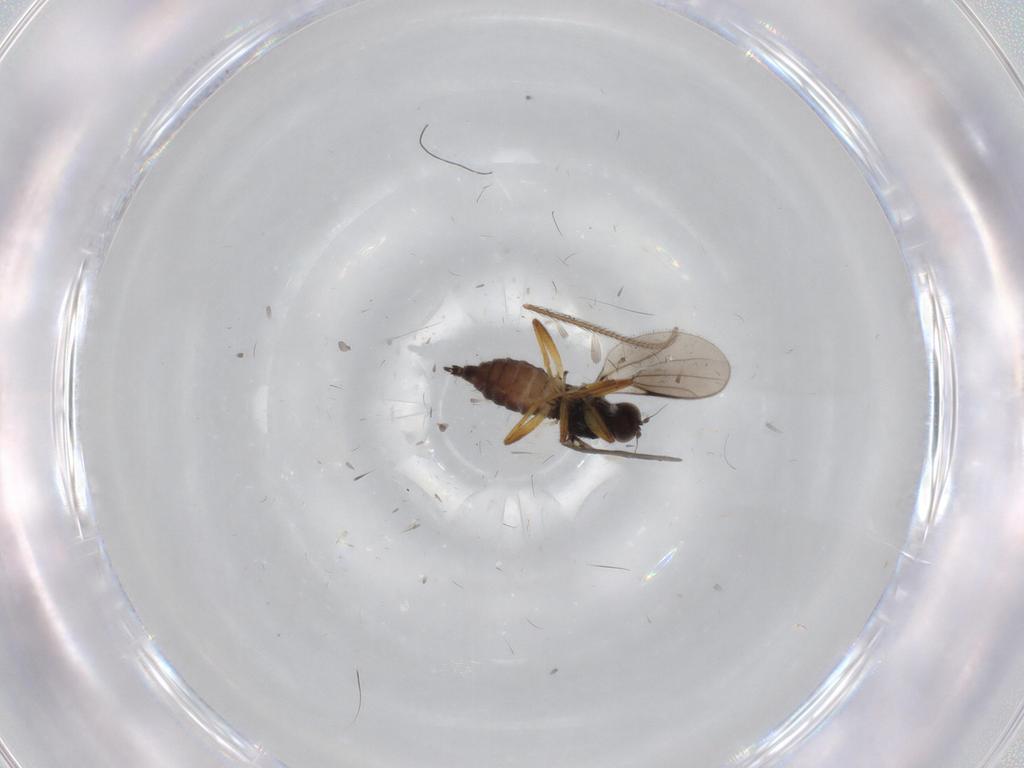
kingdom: Animalia
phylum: Arthropoda
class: Insecta
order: Diptera
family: Hybotidae
